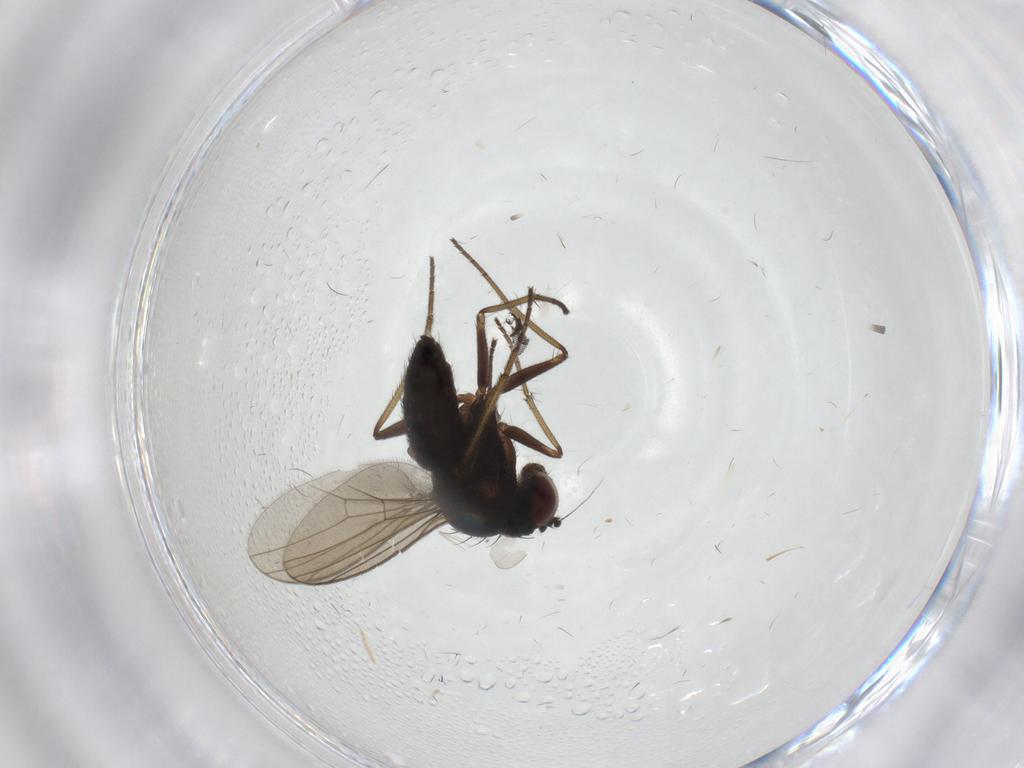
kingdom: Animalia
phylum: Arthropoda
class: Insecta
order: Diptera
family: Dolichopodidae
